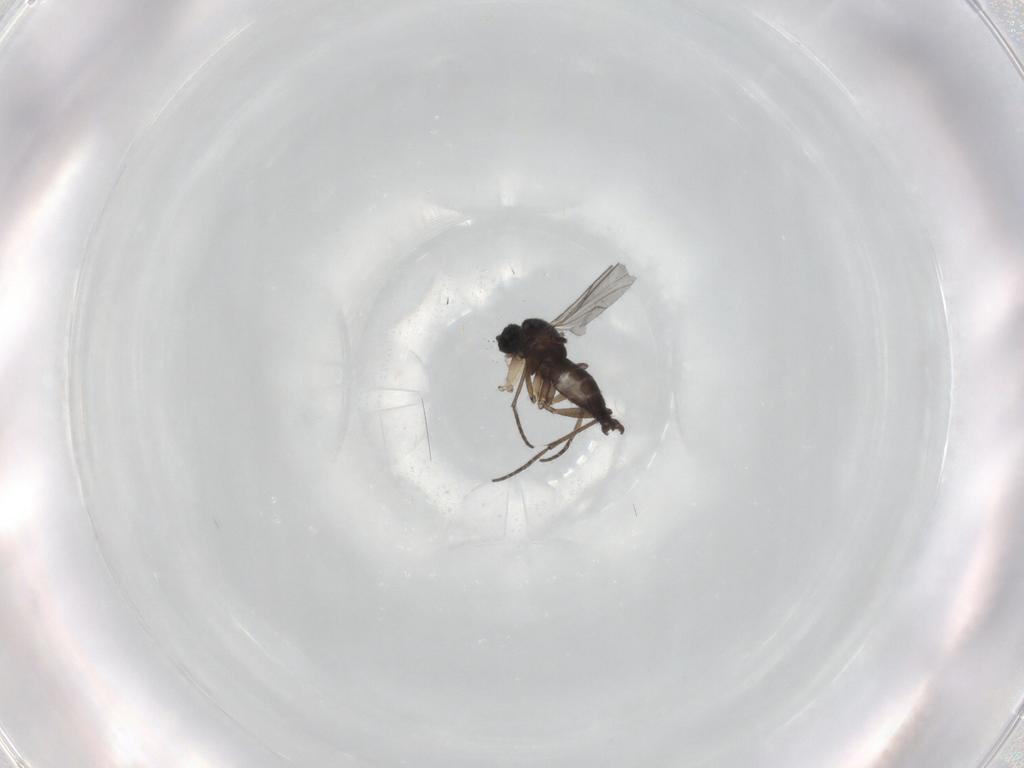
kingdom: Animalia
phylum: Arthropoda
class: Insecta
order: Diptera
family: Sciaridae
